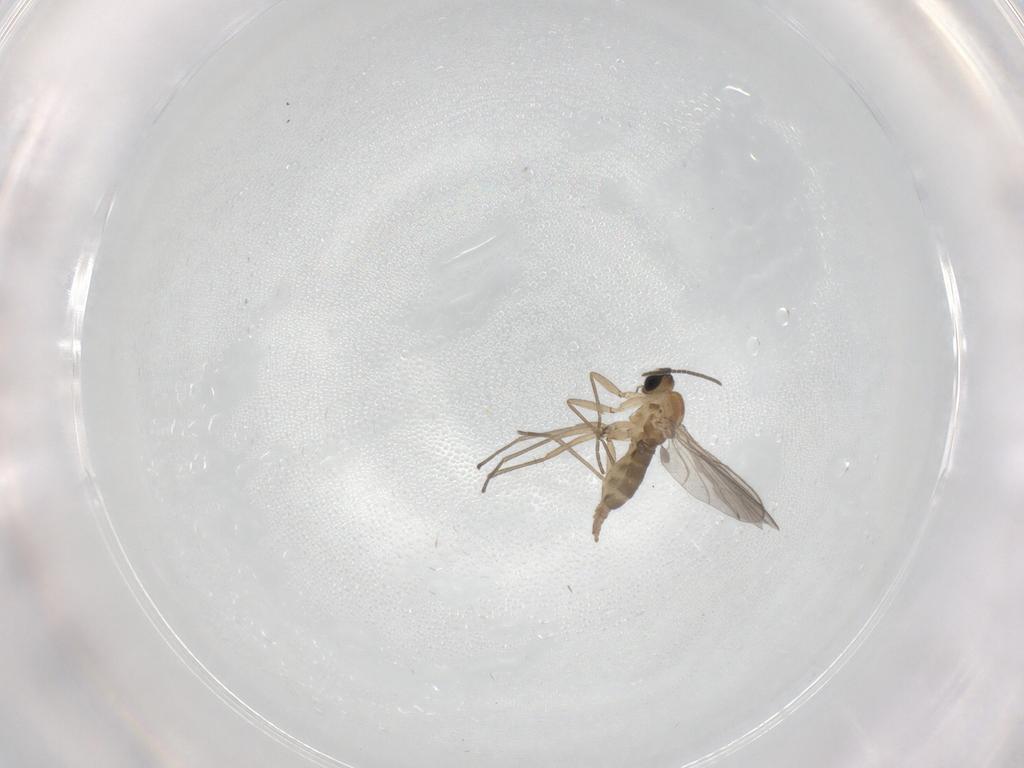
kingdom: Animalia
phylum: Arthropoda
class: Insecta
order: Diptera
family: Sciaridae
